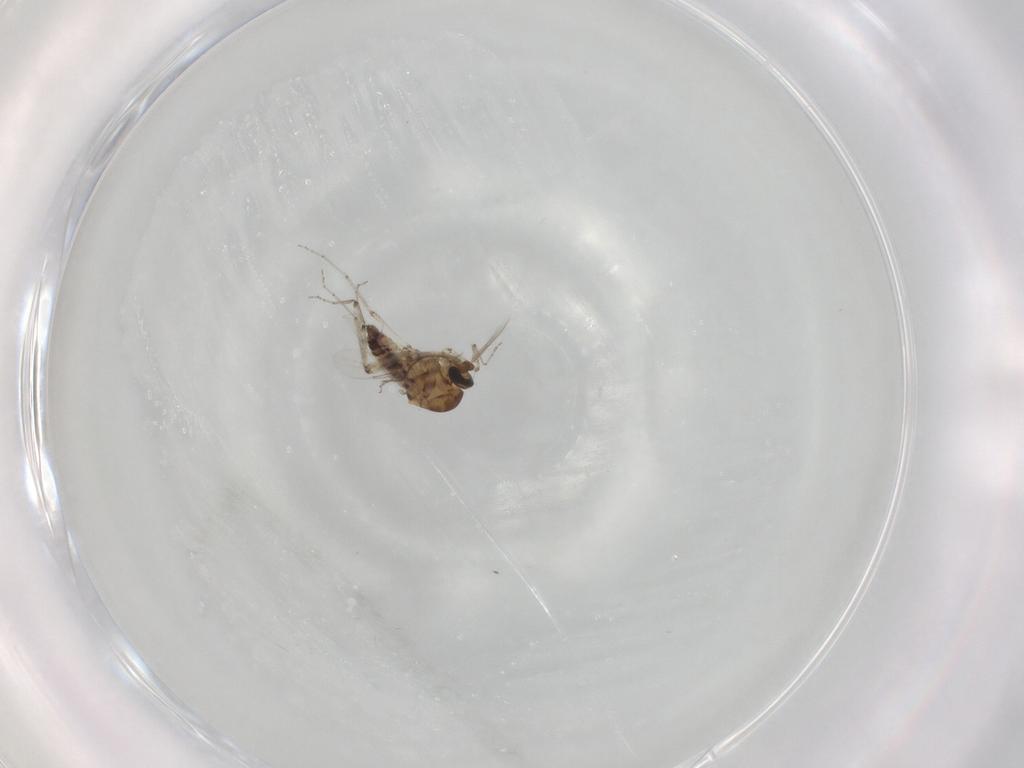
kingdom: Animalia
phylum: Arthropoda
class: Insecta
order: Diptera
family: Ceratopogonidae
